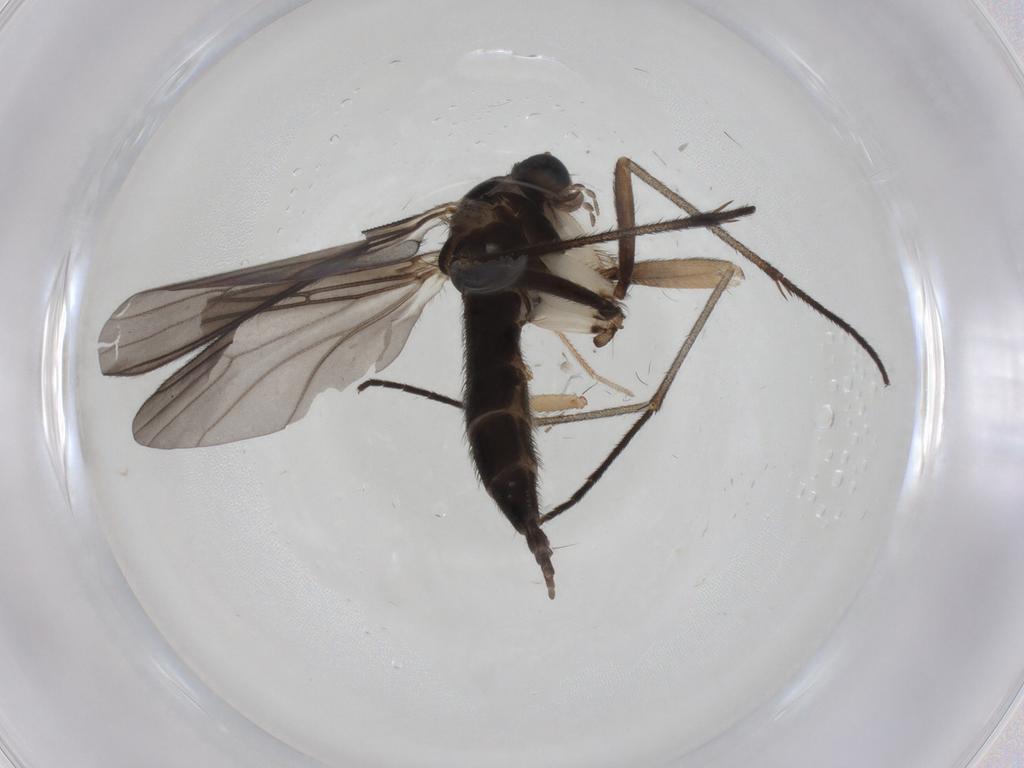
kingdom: Animalia
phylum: Arthropoda
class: Insecta
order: Diptera
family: Sciaridae
